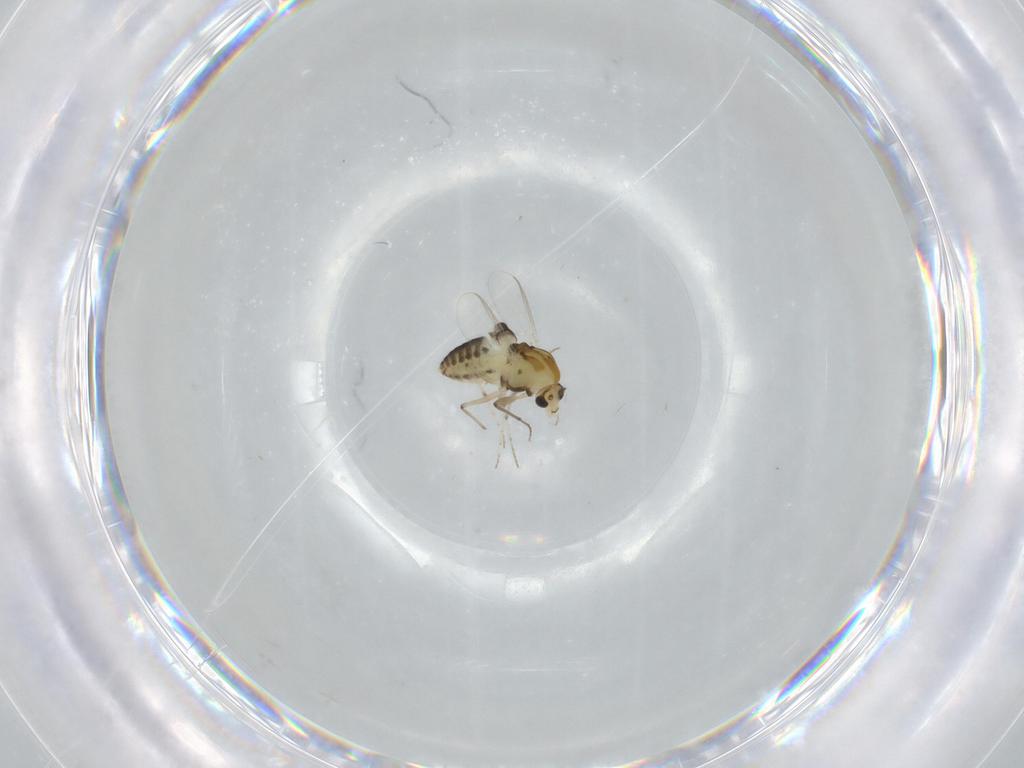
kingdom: Animalia
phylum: Arthropoda
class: Insecta
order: Diptera
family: Chironomidae
